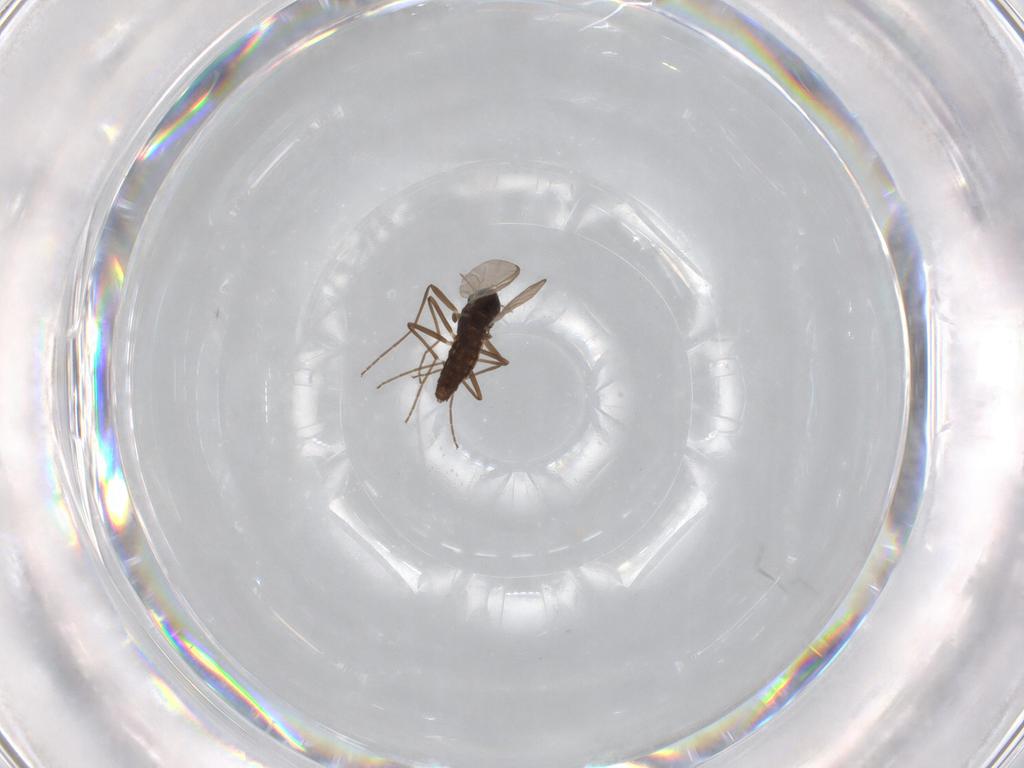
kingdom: Animalia
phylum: Arthropoda
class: Insecta
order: Diptera
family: Chironomidae
